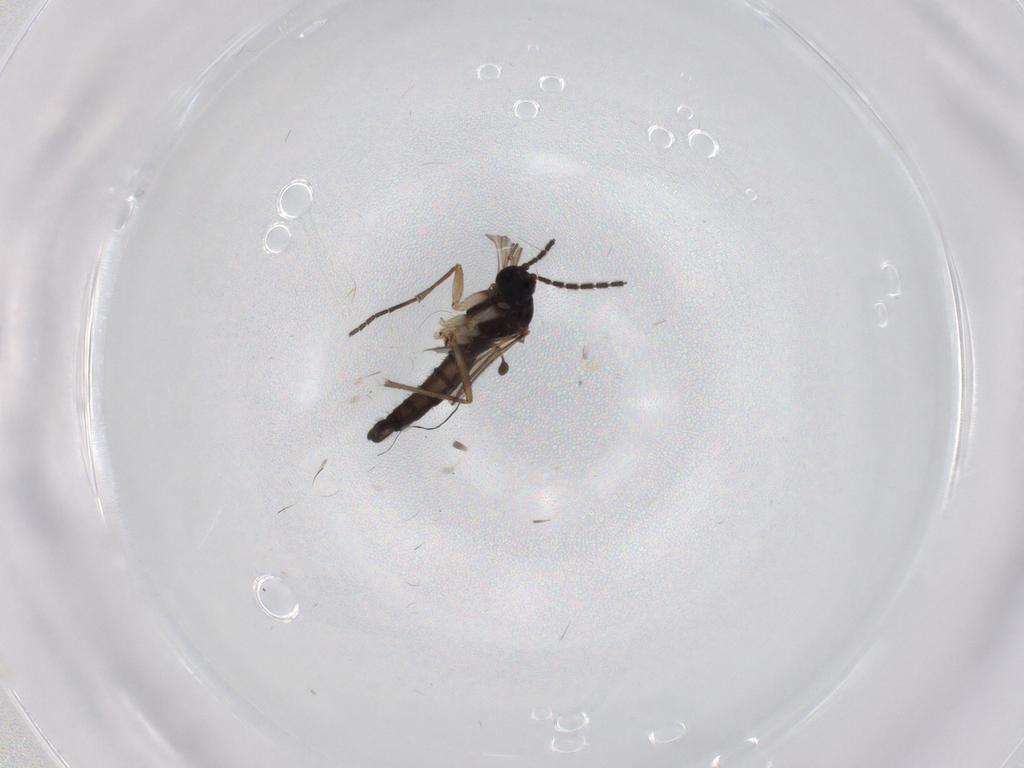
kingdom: Animalia
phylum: Arthropoda
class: Insecta
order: Diptera
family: Sciaridae
